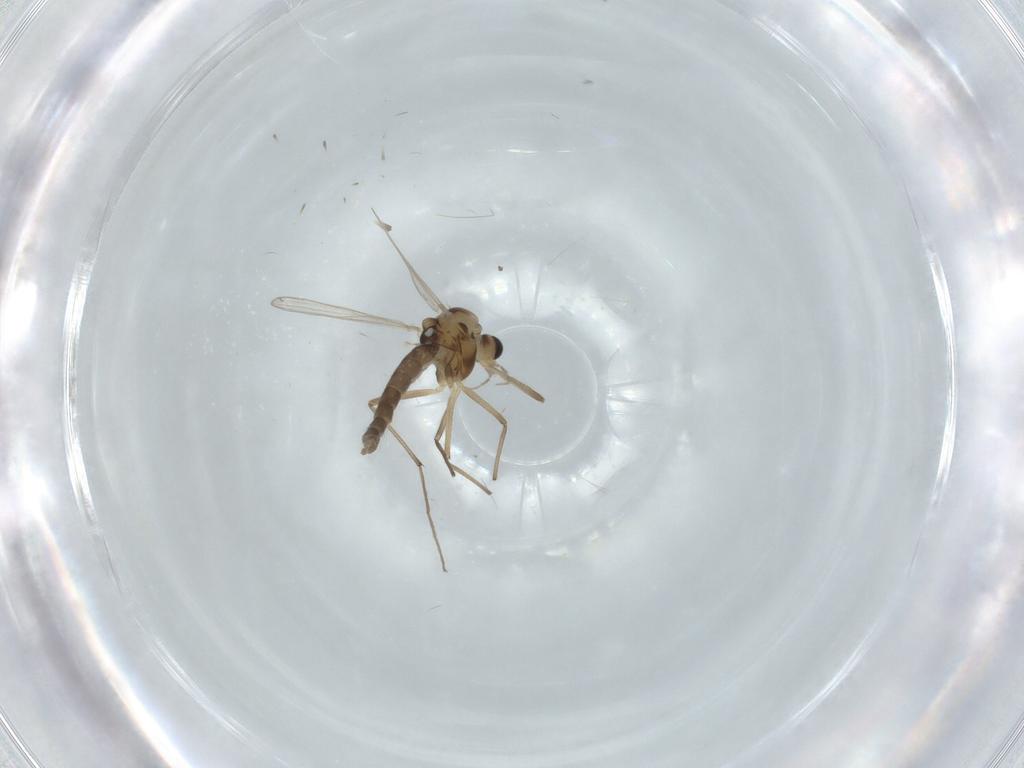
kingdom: Animalia
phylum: Arthropoda
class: Insecta
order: Diptera
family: Chironomidae
